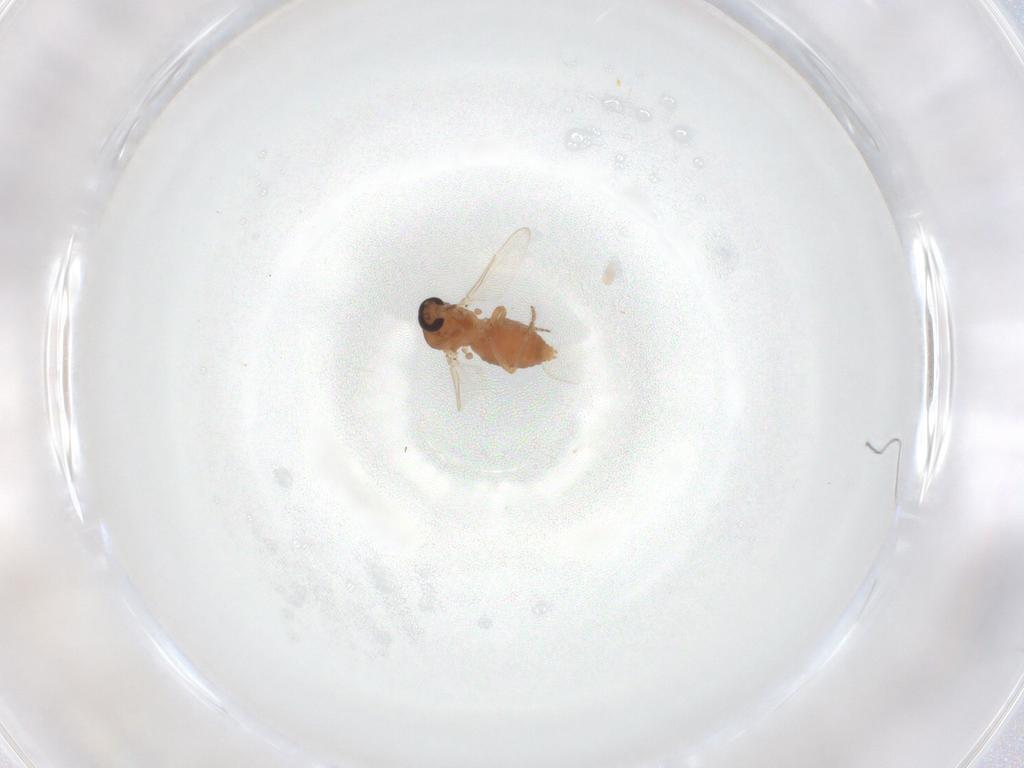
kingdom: Animalia
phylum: Arthropoda
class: Insecta
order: Diptera
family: Ceratopogonidae
